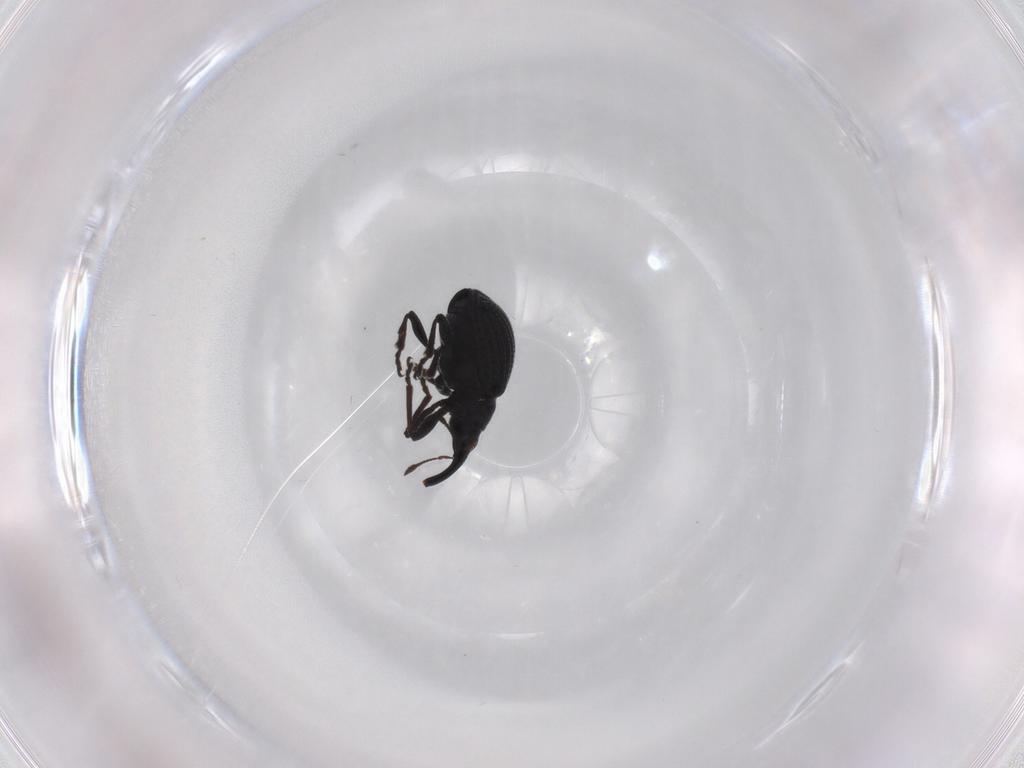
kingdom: Animalia
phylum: Arthropoda
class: Insecta
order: Coleoptera
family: Brentidae
